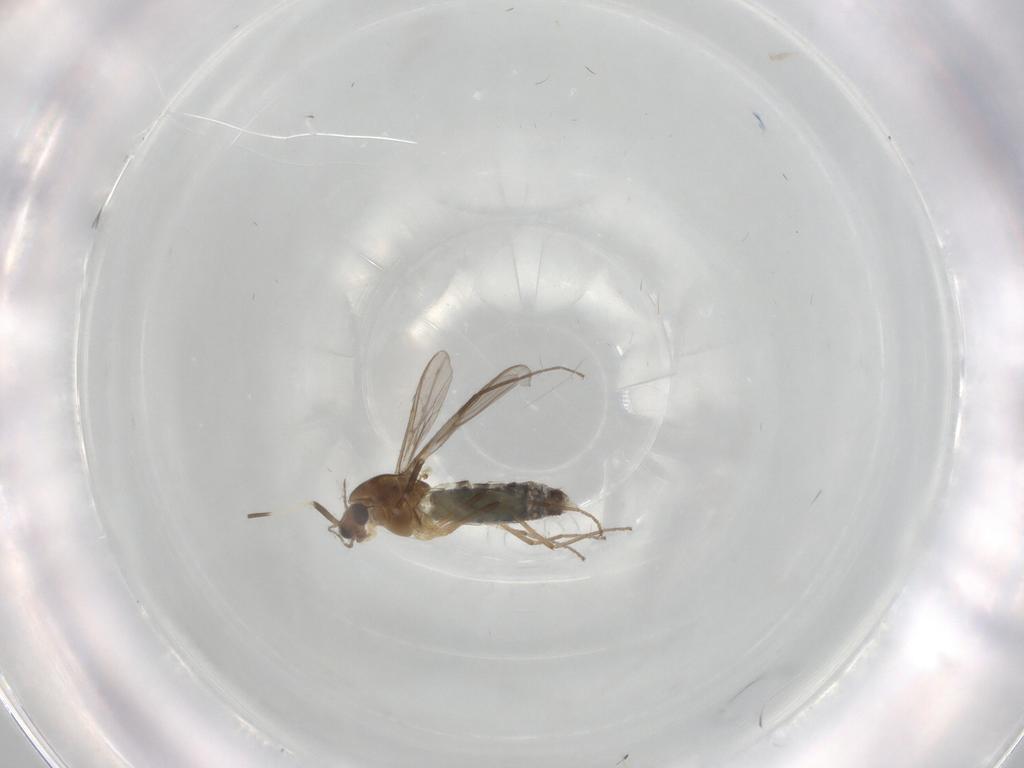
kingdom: Animalia
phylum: Arthropoda
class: Insecta
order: Diptera
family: Chironomidae
